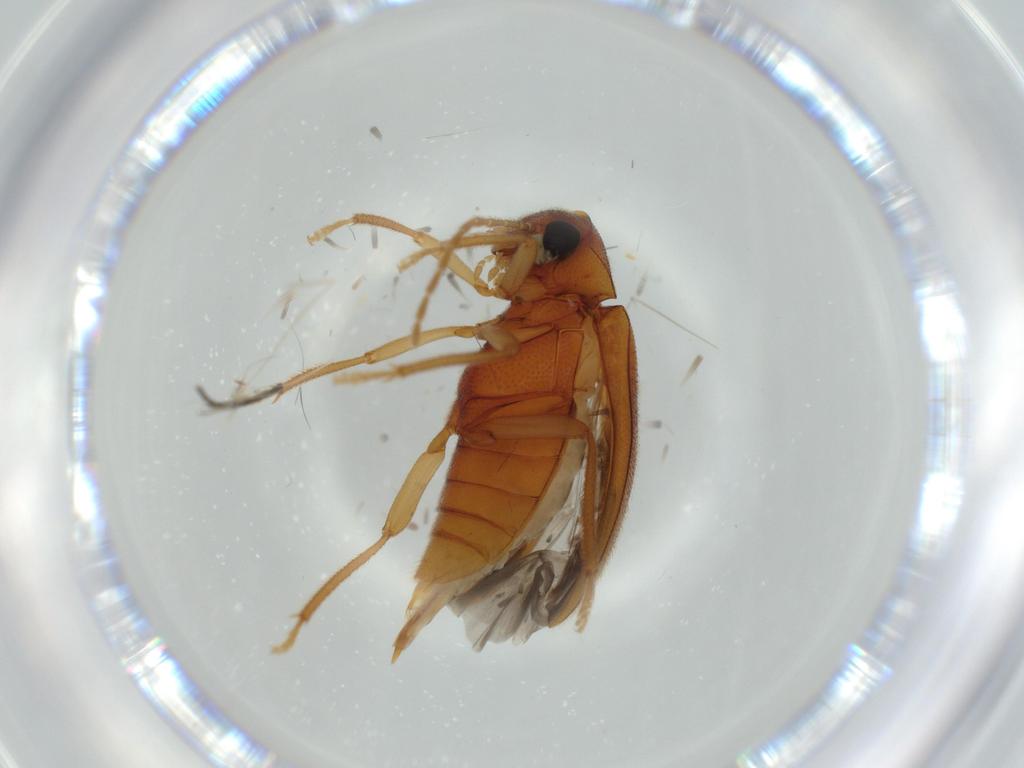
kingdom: Animalia
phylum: Arthropoda
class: Insecta
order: Coleoptera
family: Ptilodactylidae
